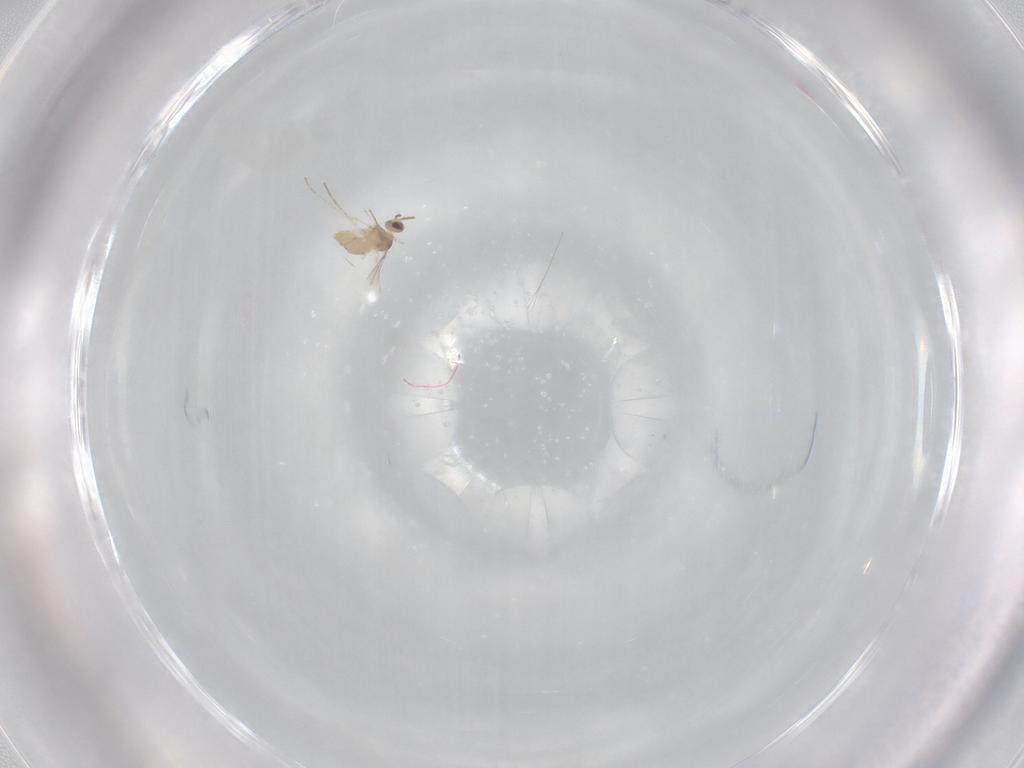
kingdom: Animalia
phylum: Arthropoda
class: Insecta
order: Diptera
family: Cecidomyiidae
